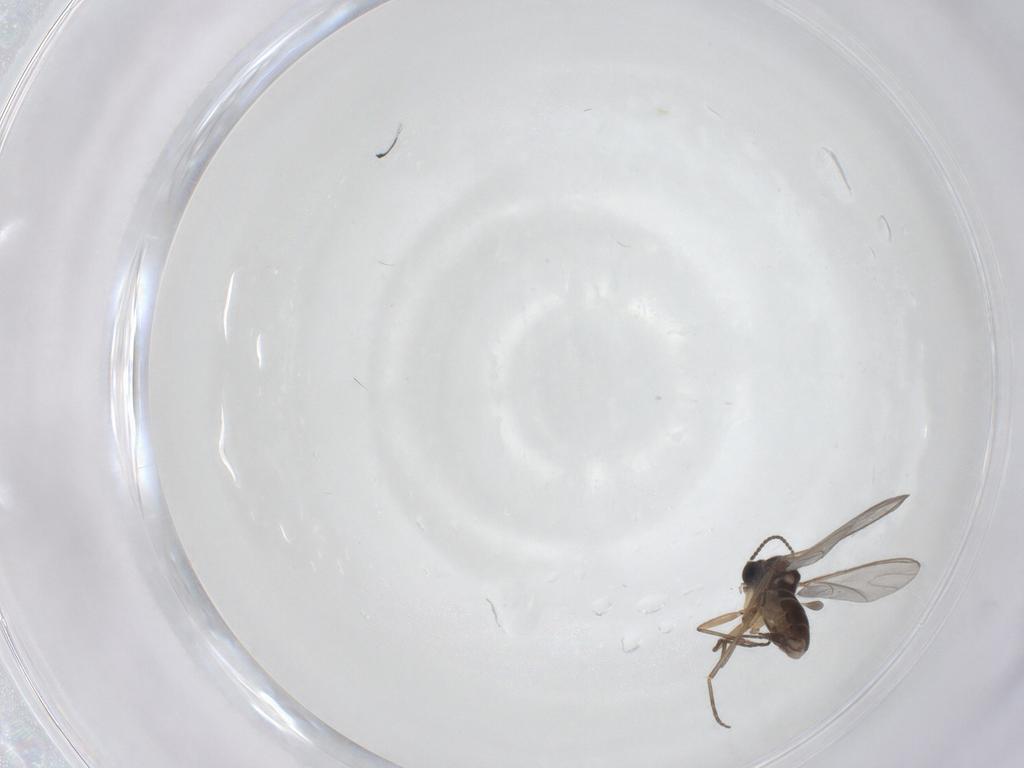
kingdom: Animalia
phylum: Arthropoda
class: Insecta
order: Diptera
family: Sciaridae
